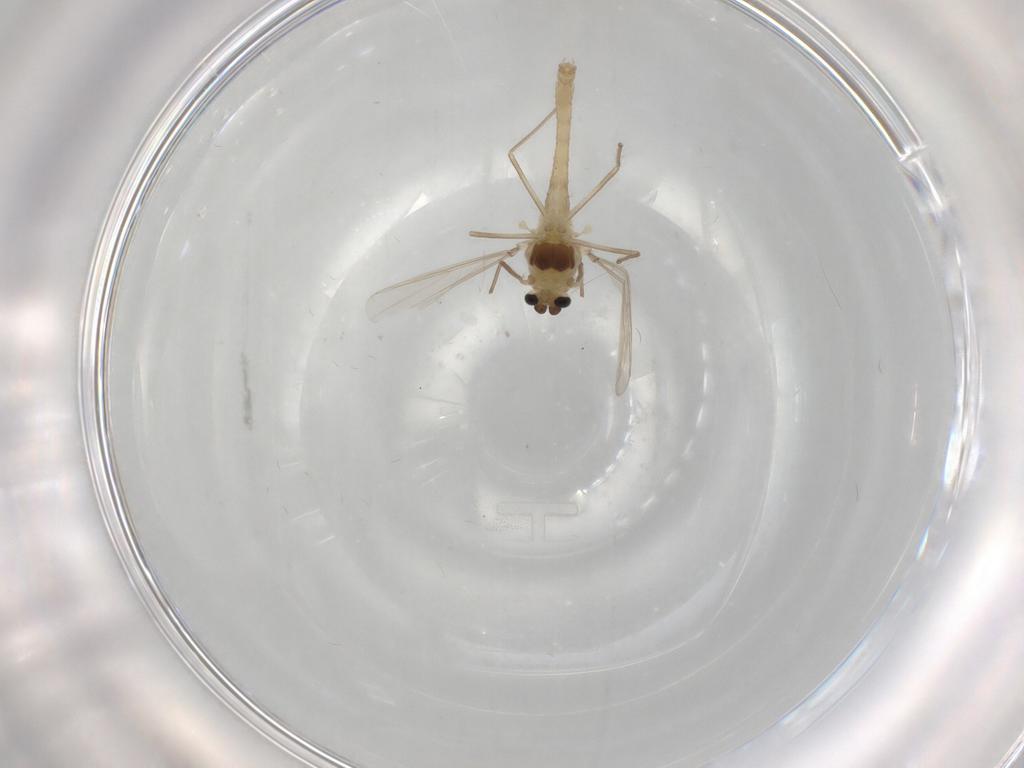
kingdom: Animalia
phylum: Arthropoda
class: Insecta
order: Diptera
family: Chironomidae
